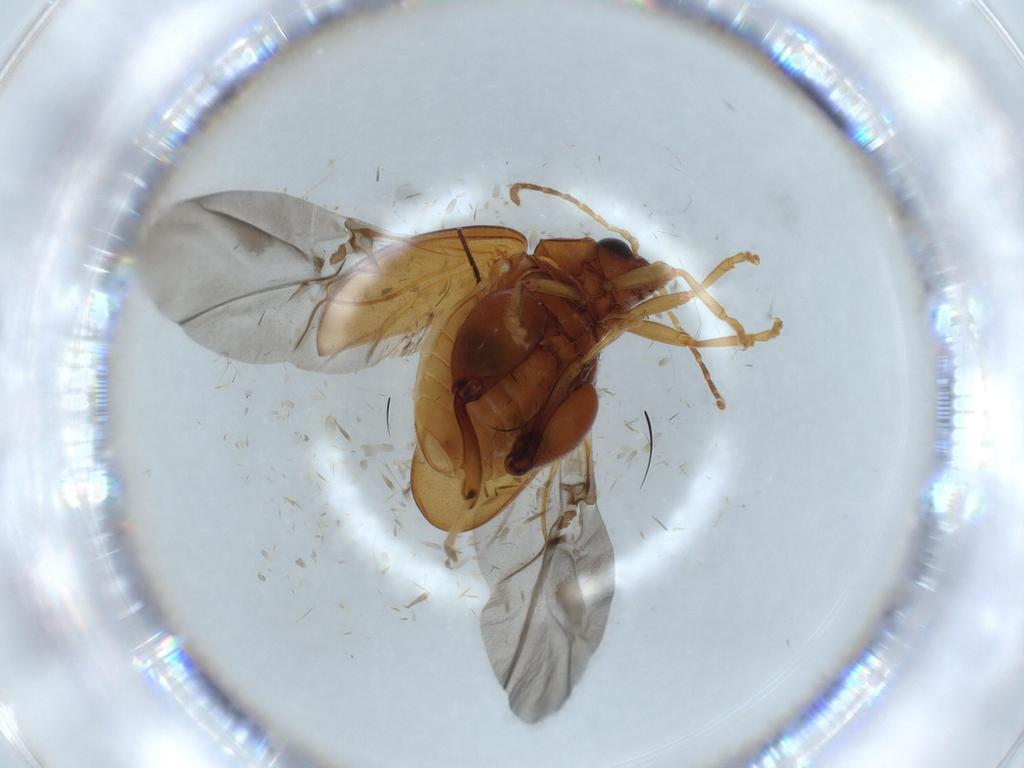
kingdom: Animalia
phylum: Arthropoda
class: Insecta
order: Coleoptera
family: Chrysomelidae
